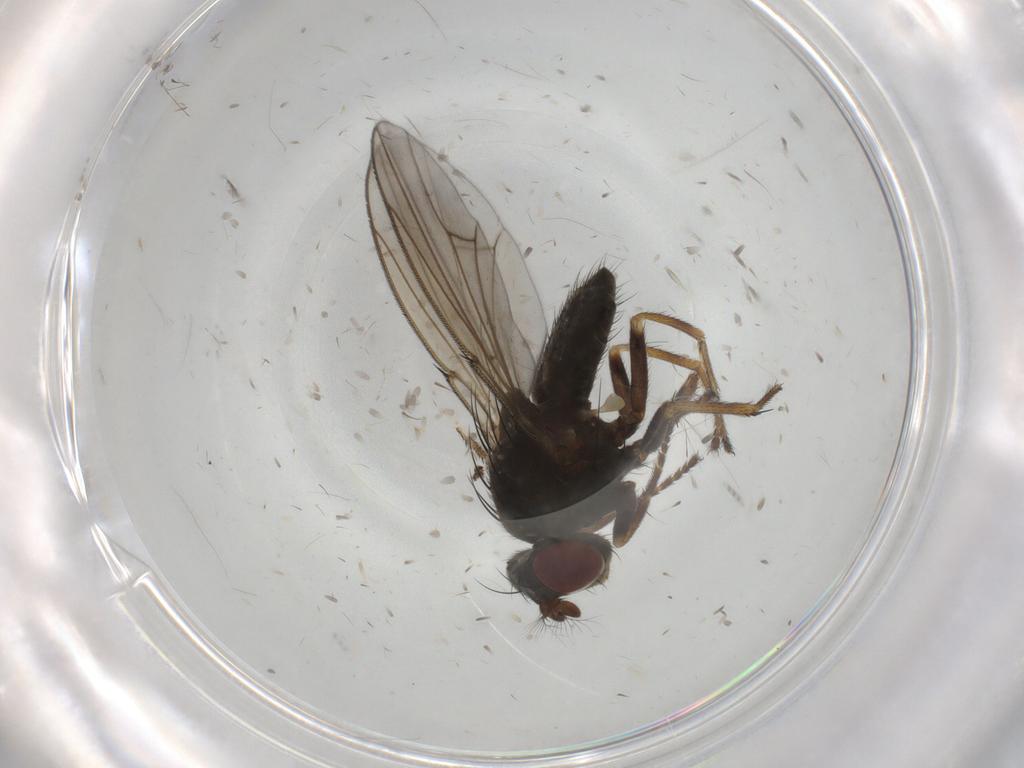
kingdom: Animalia
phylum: Arthropoda
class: Insecta
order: Diptera
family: Ephydridae
